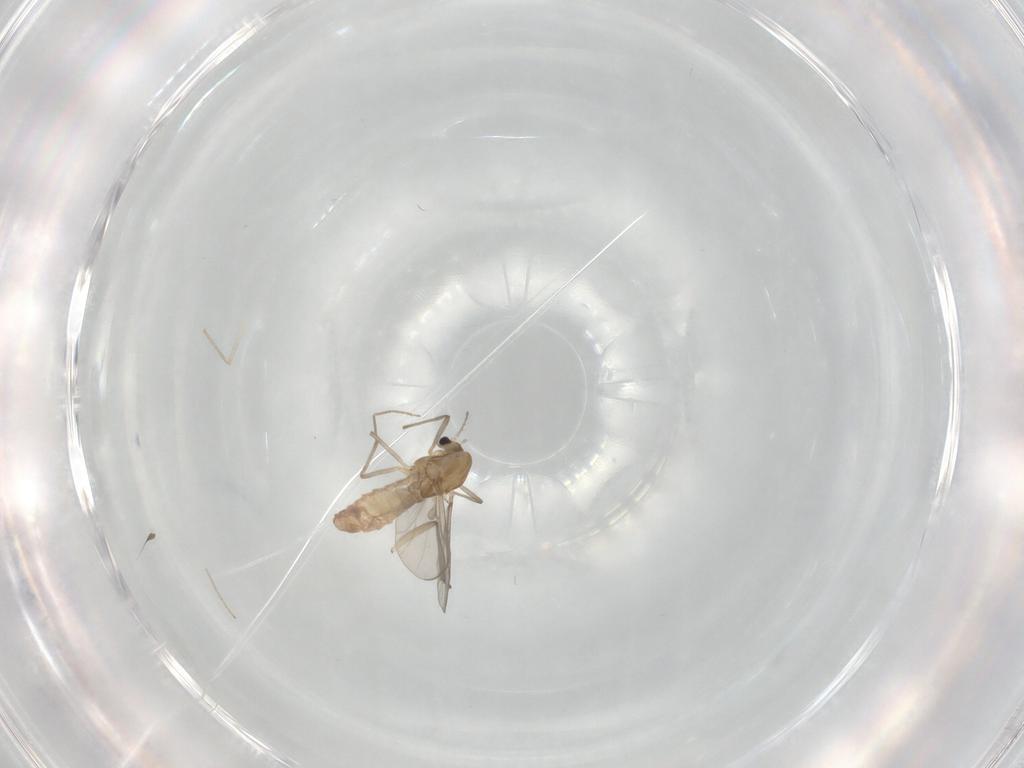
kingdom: Animalia
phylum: Arthropoda
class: Insecta
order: Diptera
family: Chironomidae
